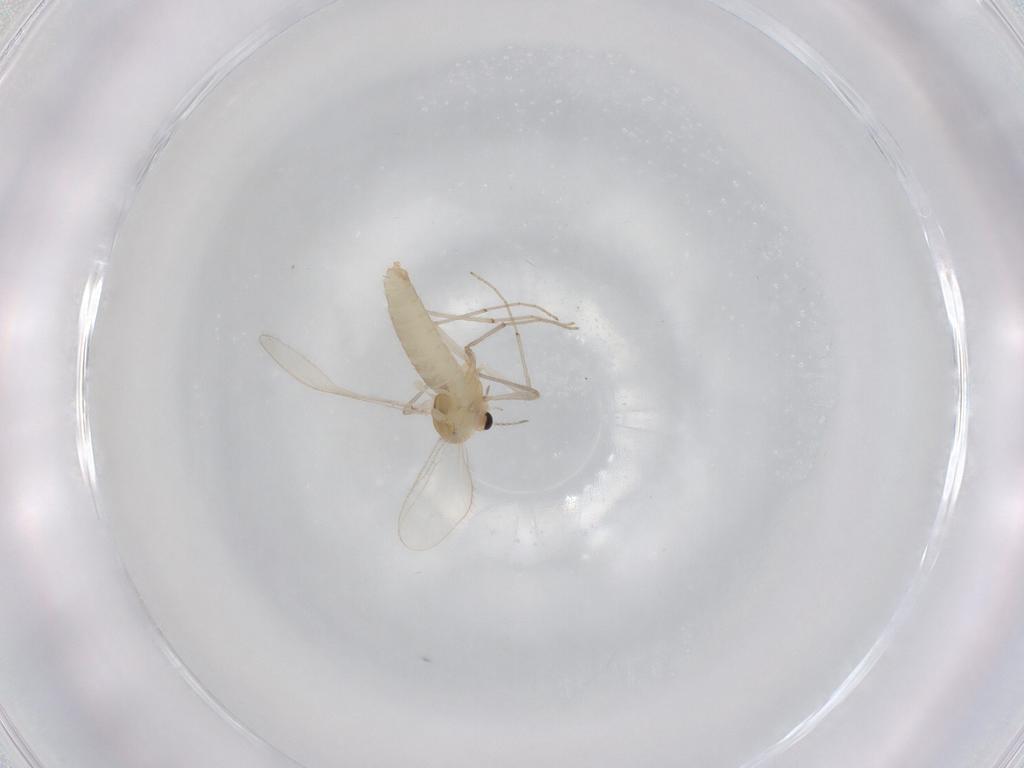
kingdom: Animalia
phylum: Arthropoda
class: Insecta
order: Diptera
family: Chironomidae
